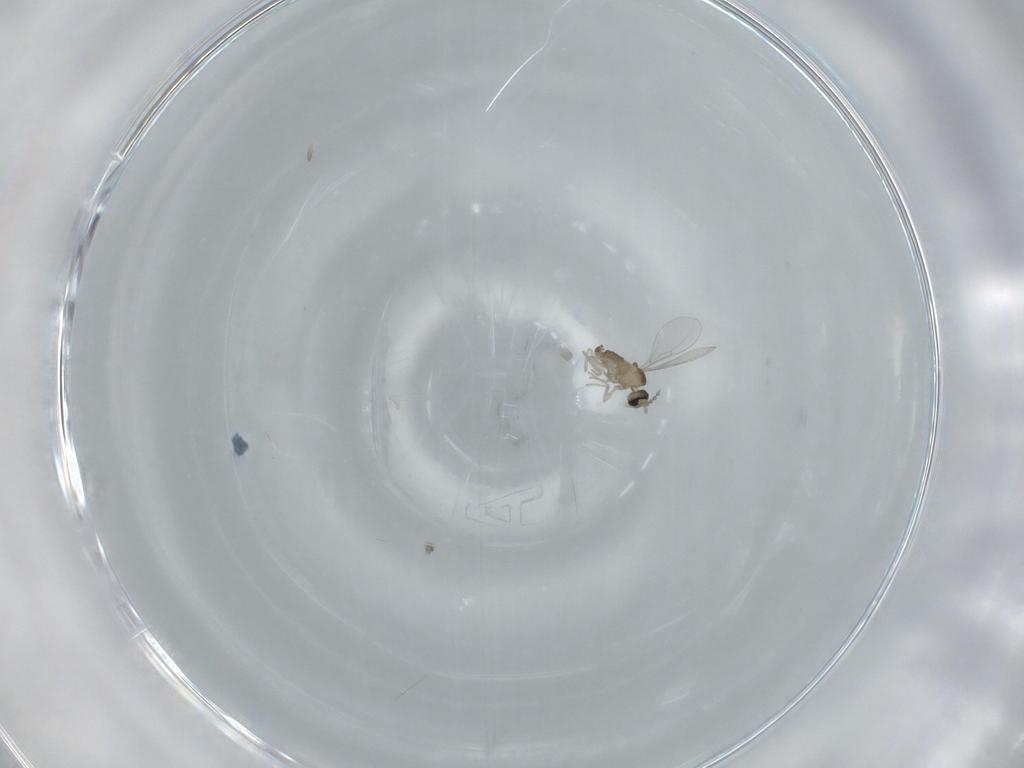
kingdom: Animalia
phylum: Arthropoda
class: Insecta
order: Diptera
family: Cecidomyiidae
